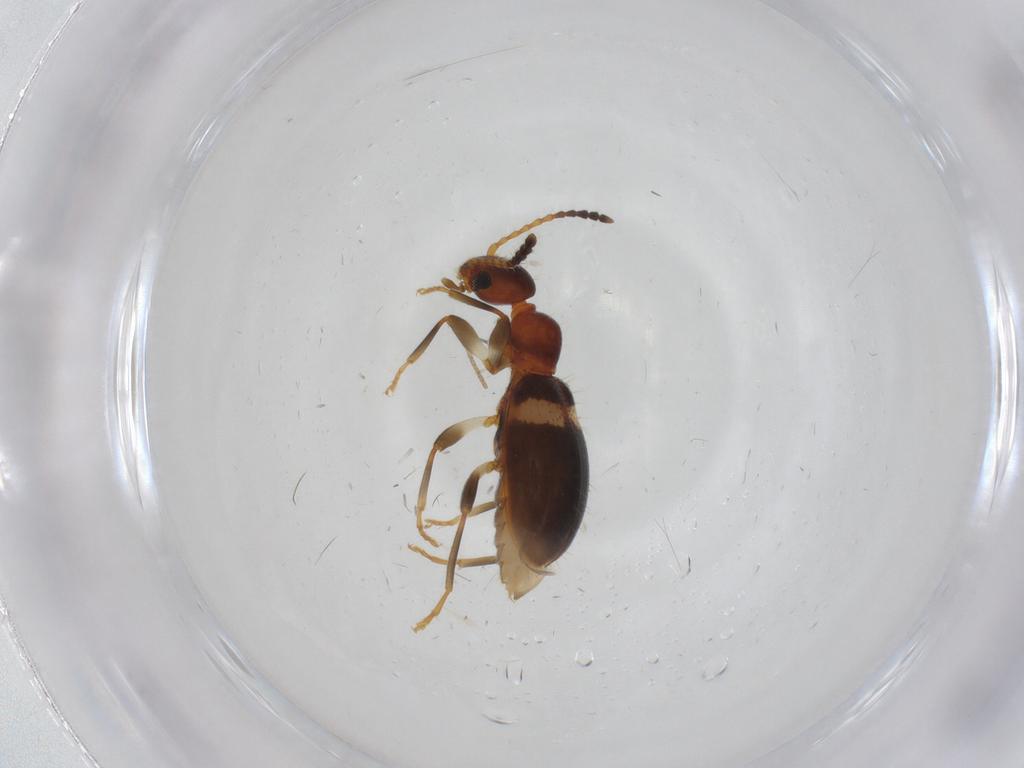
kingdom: Animalia
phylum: Arthropoda
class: Insecta
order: Coleoptera
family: Anthicidae
